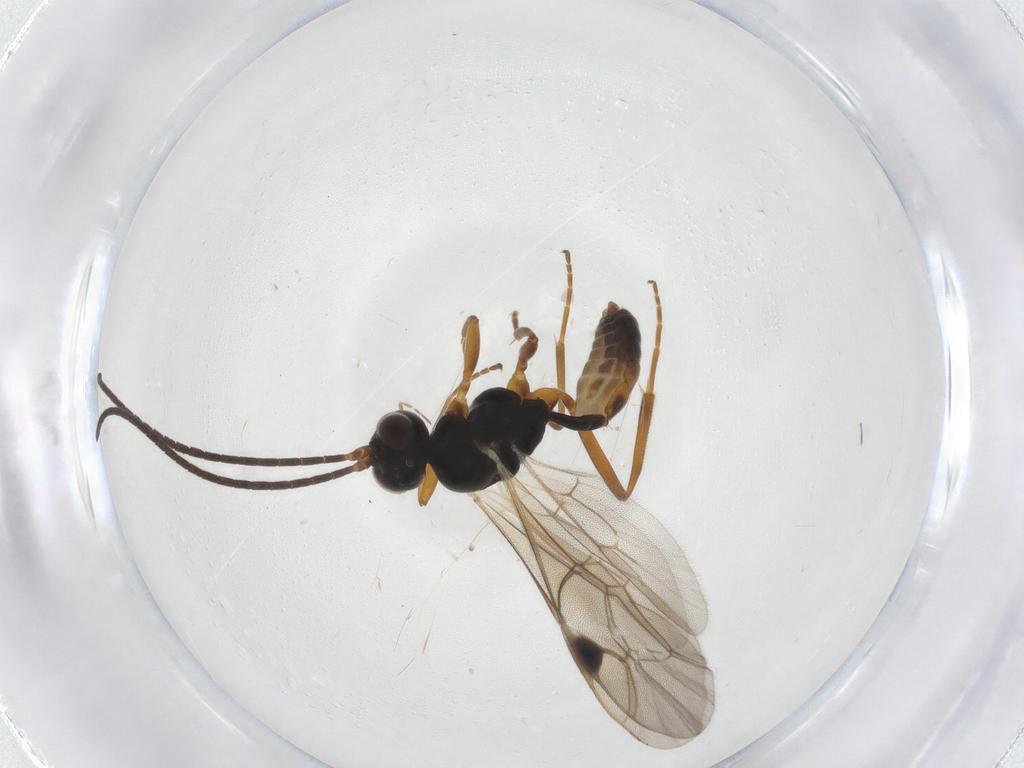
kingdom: Animalia
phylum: Arthropoda
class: Insecta
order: Hymenoptera
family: Ichneumonidae
